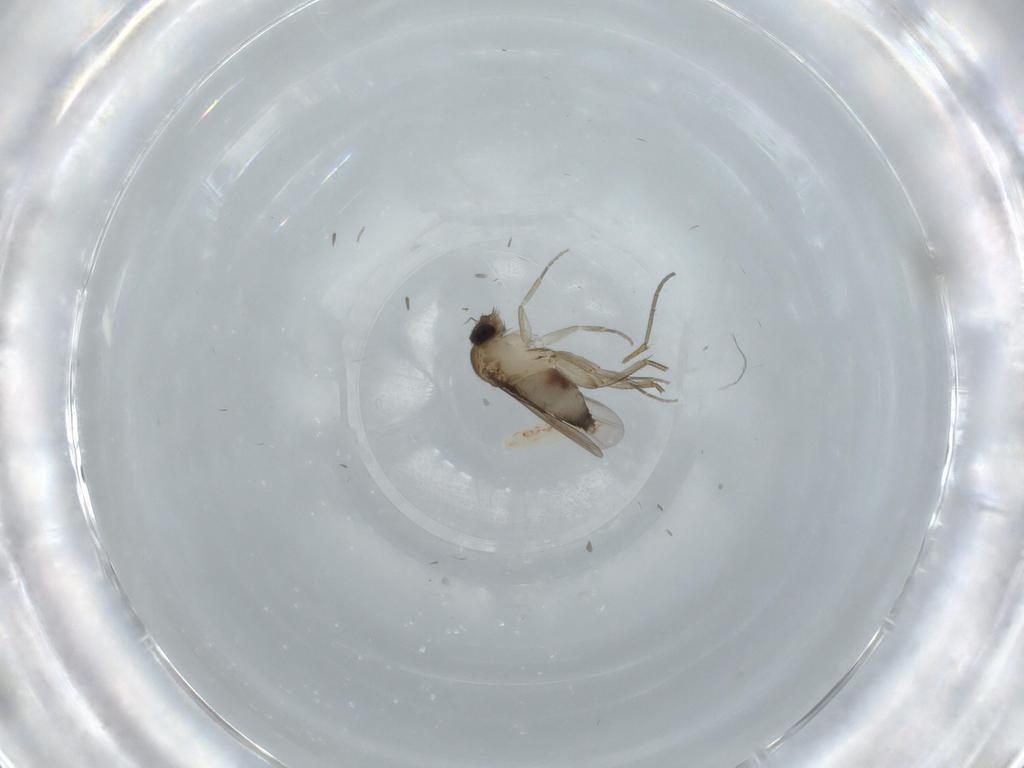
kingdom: Animalia
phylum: Arthropoda
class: Insecta
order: Diptera
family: Phoridae
